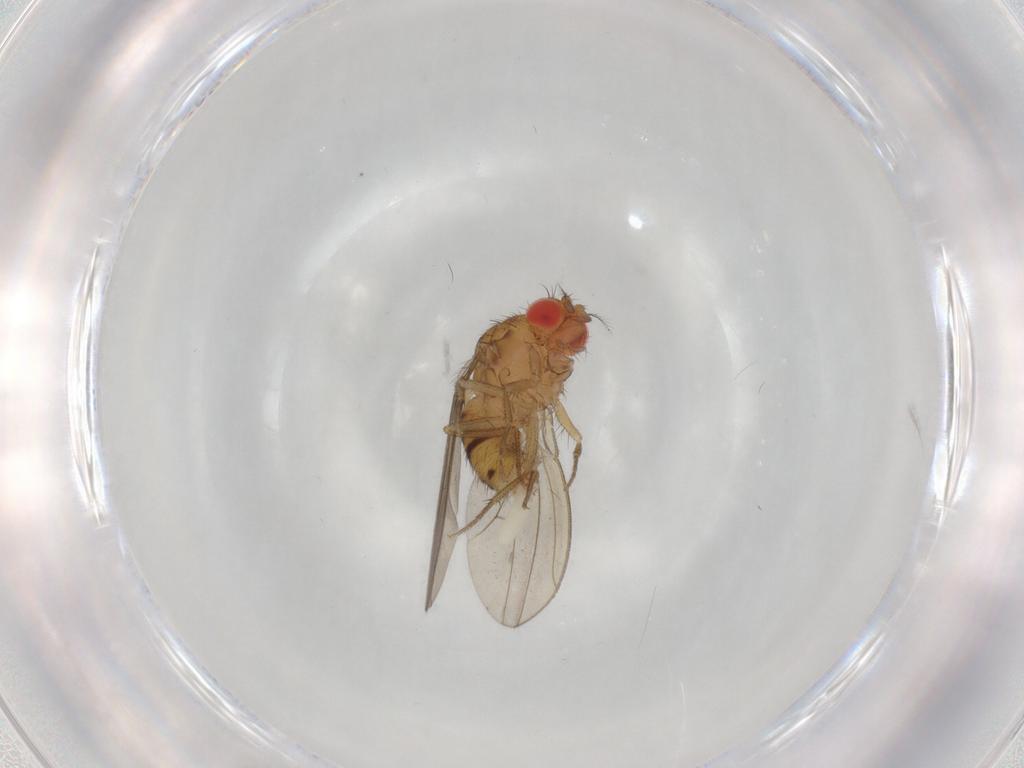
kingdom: Animalia
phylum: Arthropoda
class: Insecta
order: Diptera
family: Drosophilidae
